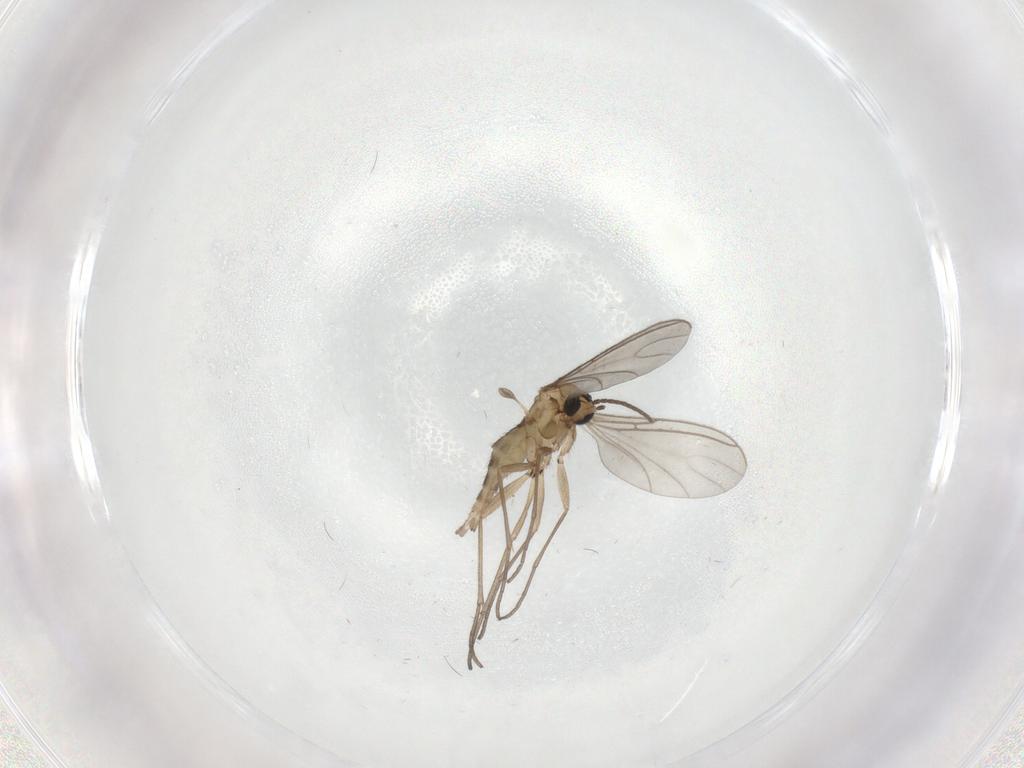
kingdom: Animalia
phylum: Arthropoda
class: Insecta
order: Diptera
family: Sciaridae
